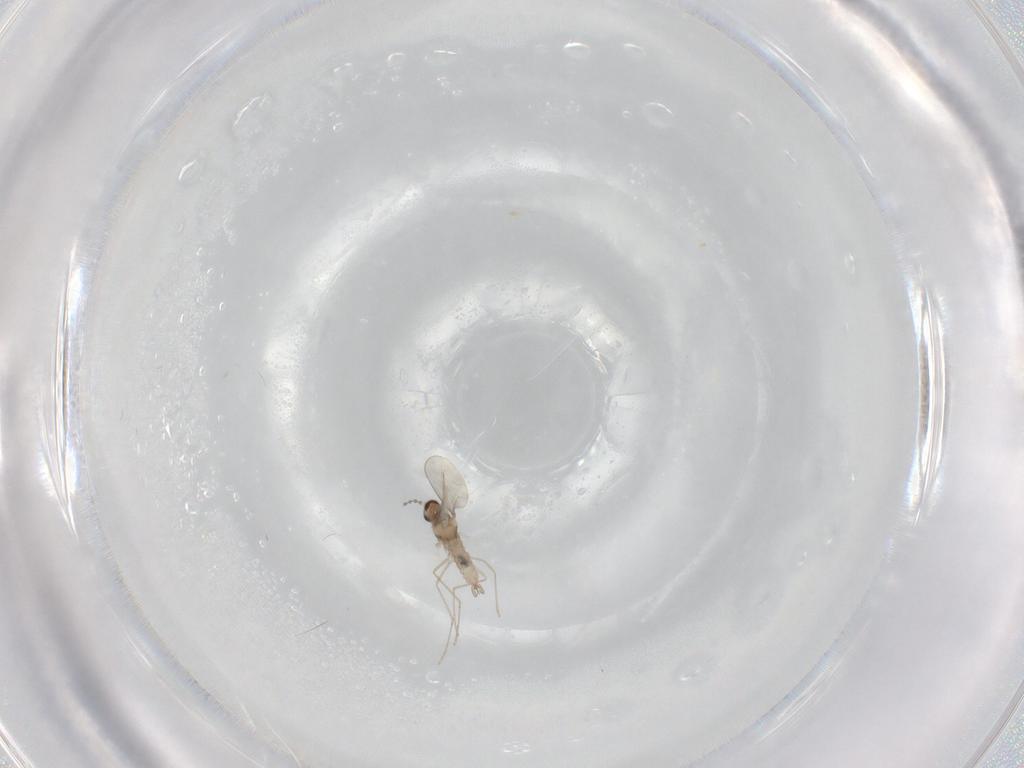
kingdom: Animalia
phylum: Arthropoda
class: Insecta
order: Diptera
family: Cecidomyiidae
